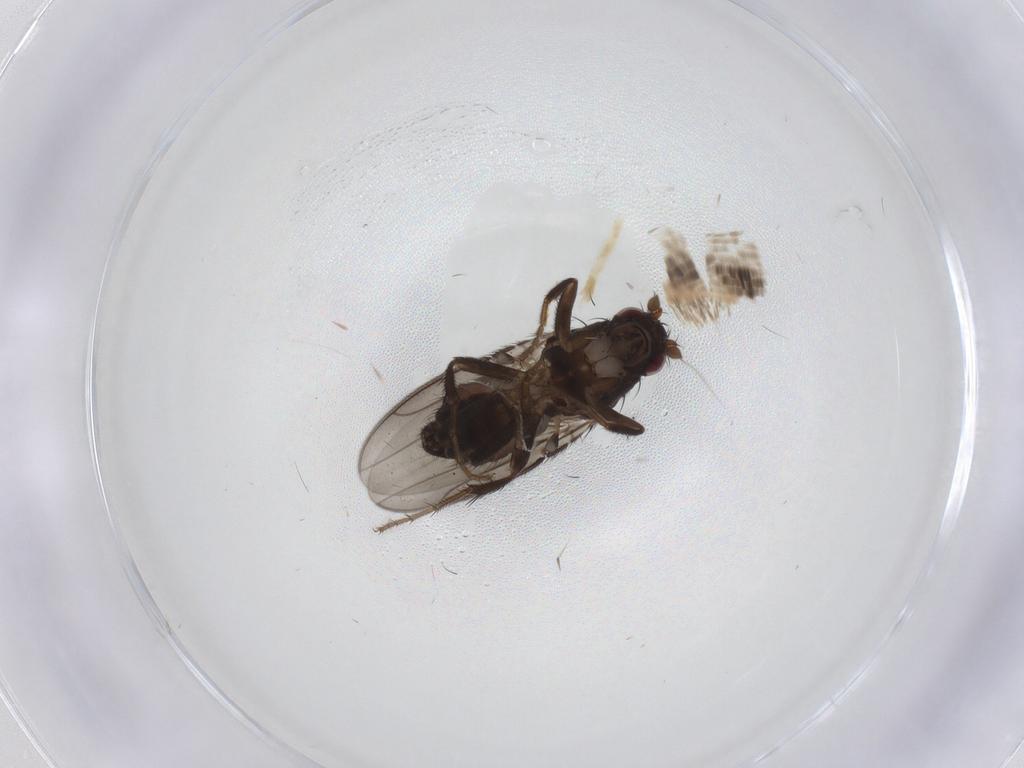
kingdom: Animalia
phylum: Arthropoda
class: Insecta
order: Diptera
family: Sphaeroceridae
